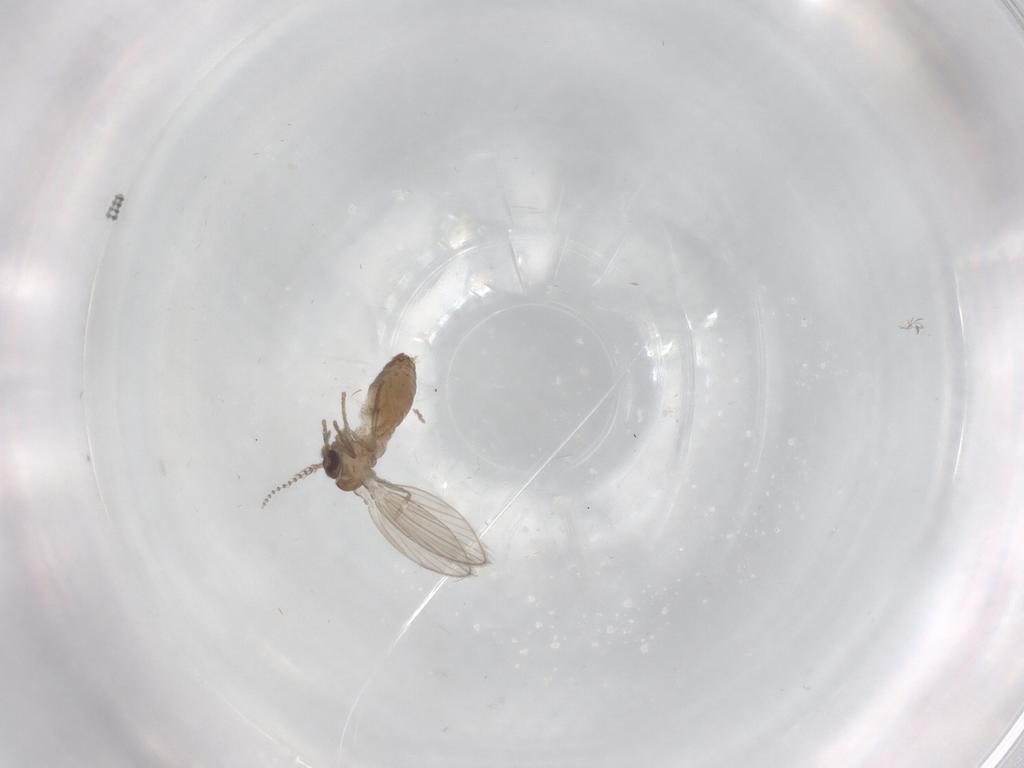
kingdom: Animalia
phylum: Arthropoda
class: Insecta
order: Diptera
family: Psychodidae
